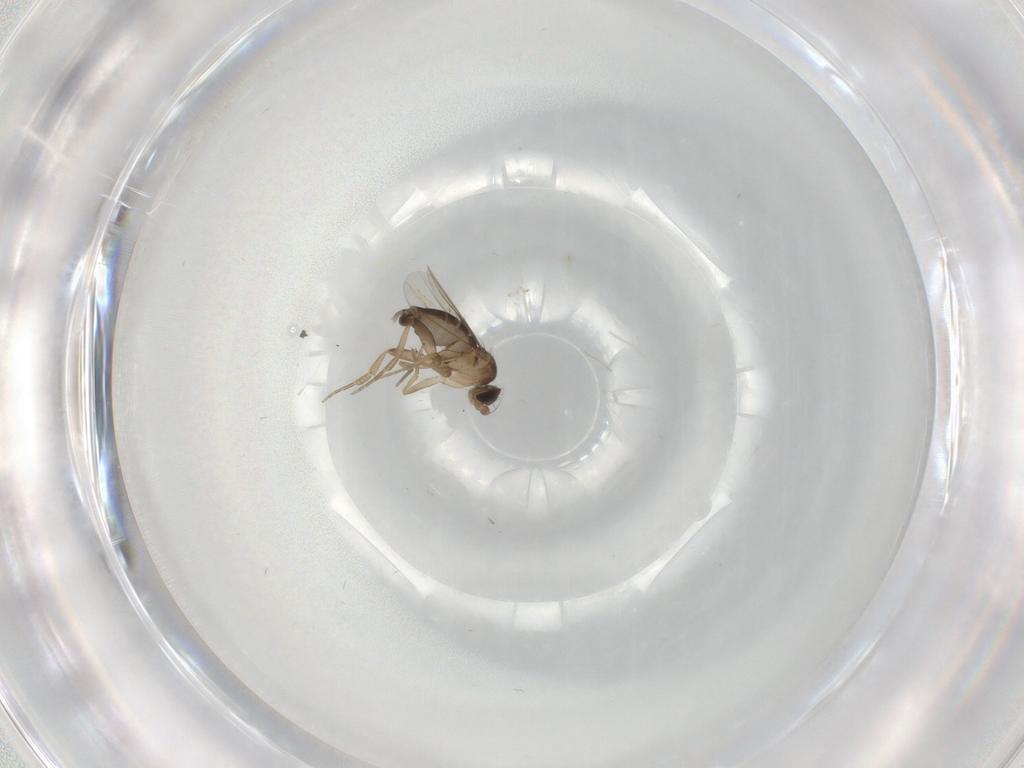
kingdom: Animalia
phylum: Arthropoda
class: Insecta
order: Diptera
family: Phoridae
